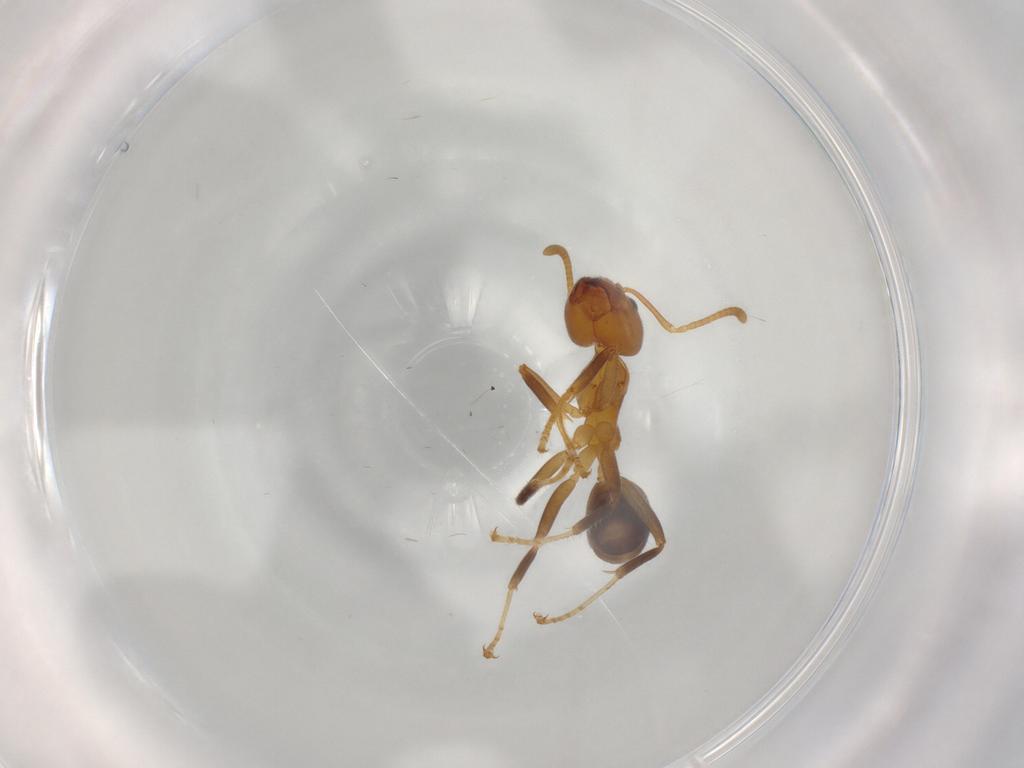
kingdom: Animalia
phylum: Arthropoda
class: Insecta
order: Hymenoptera
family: Formicidae
